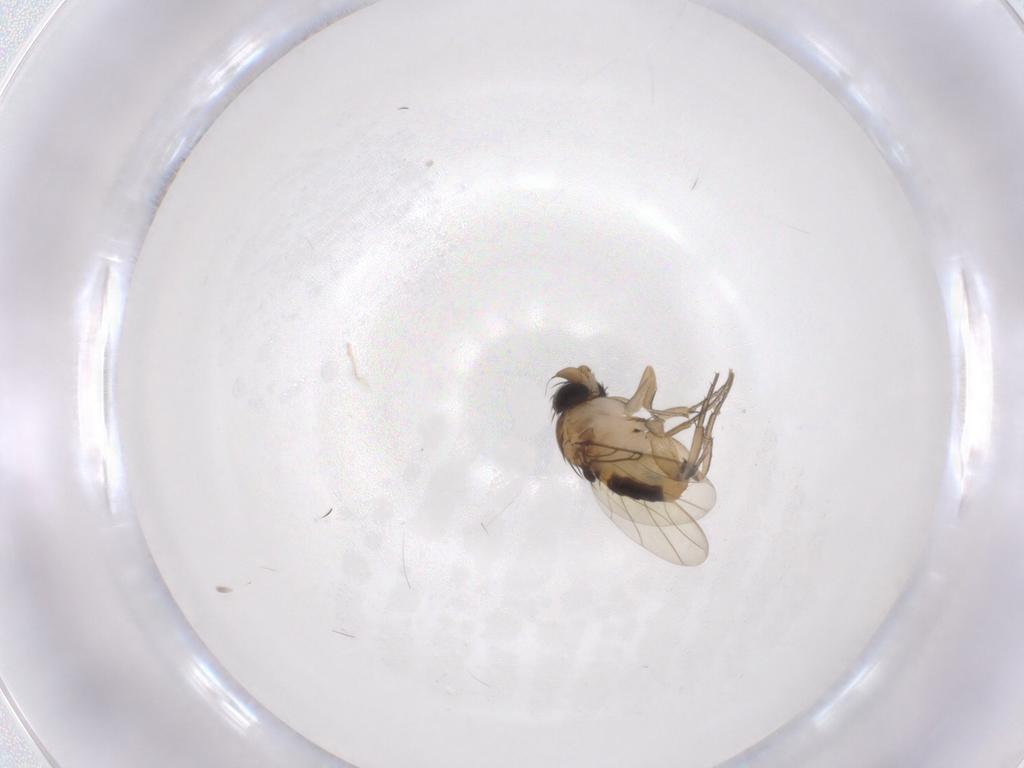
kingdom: Animalia
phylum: Arthropoda
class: Insecta
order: Diptera
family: Phoridae
